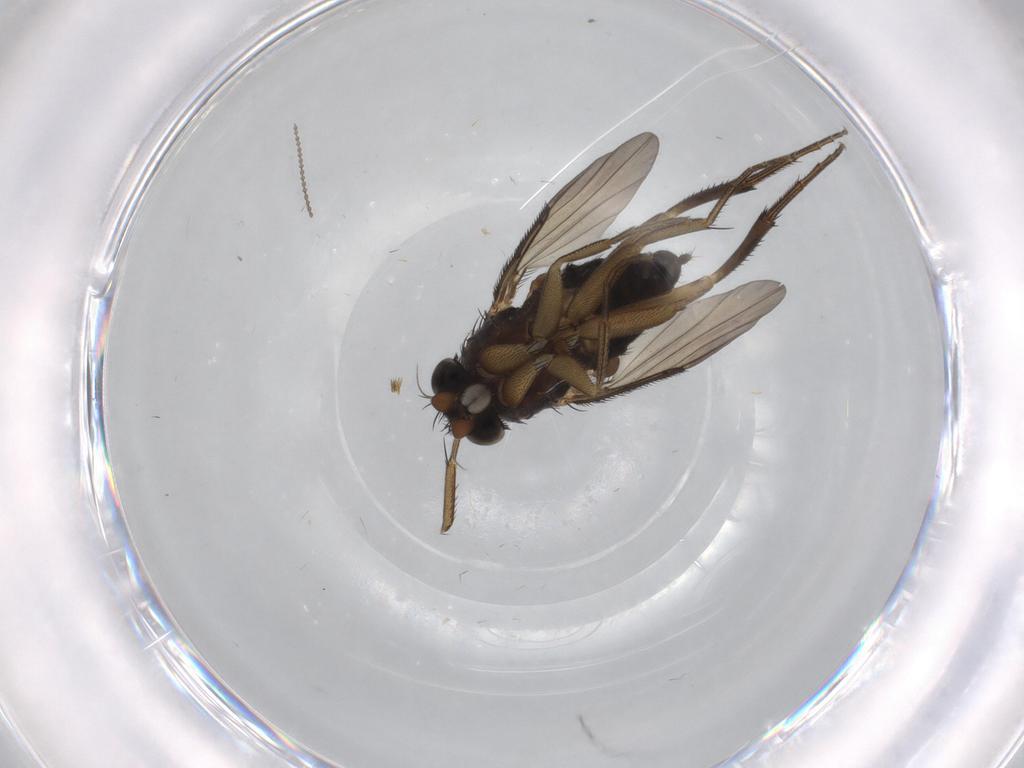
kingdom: Animalia
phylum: Arthropoda
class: Insecta
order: Diptera
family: Phoridae
